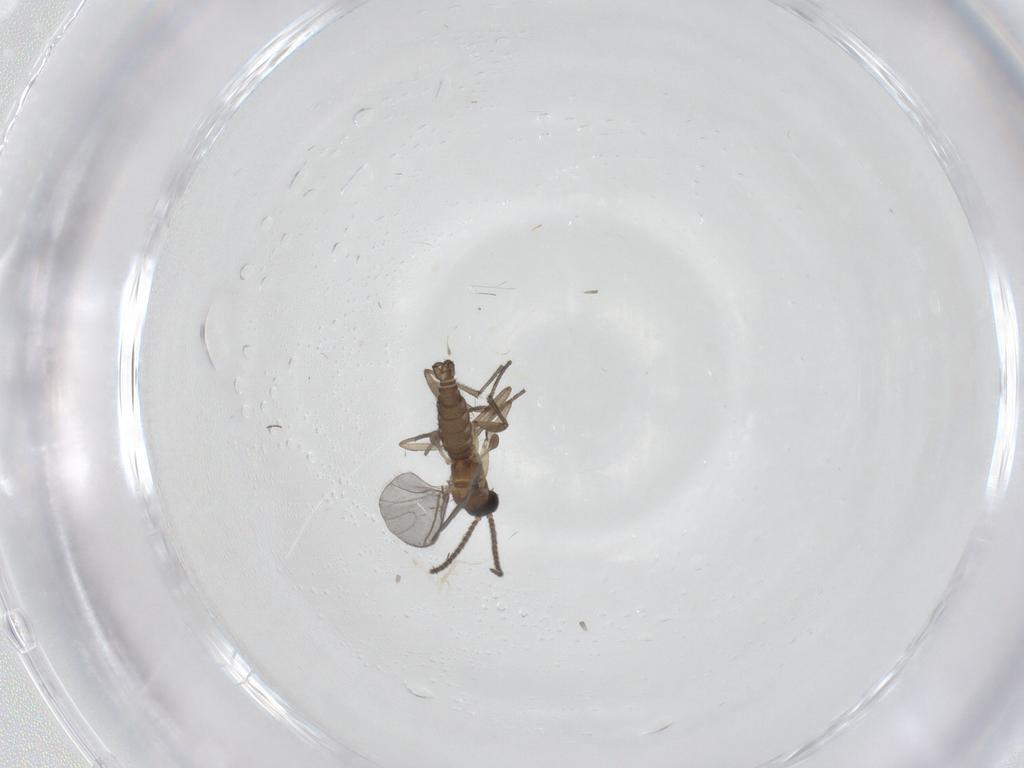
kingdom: Animalia
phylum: Arthropoda
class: Insecta
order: Diptera
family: Sciaridae
